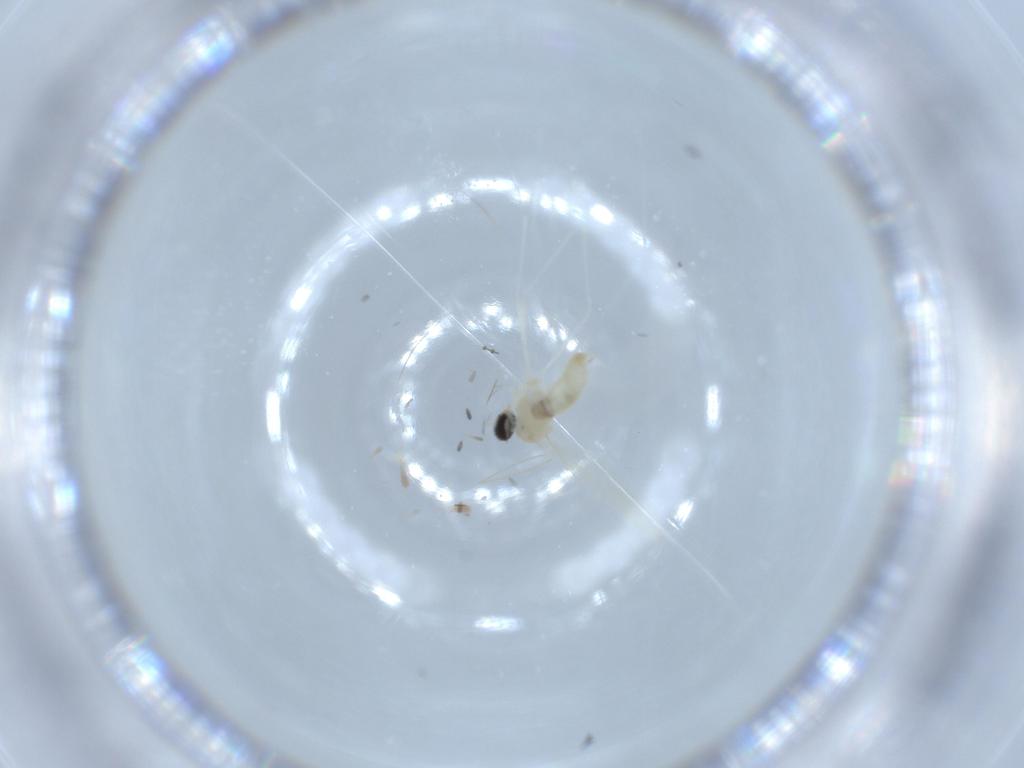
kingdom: Animalia
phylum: Arthropoda
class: Insecta
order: Diptera
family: Cecidomyiidae
